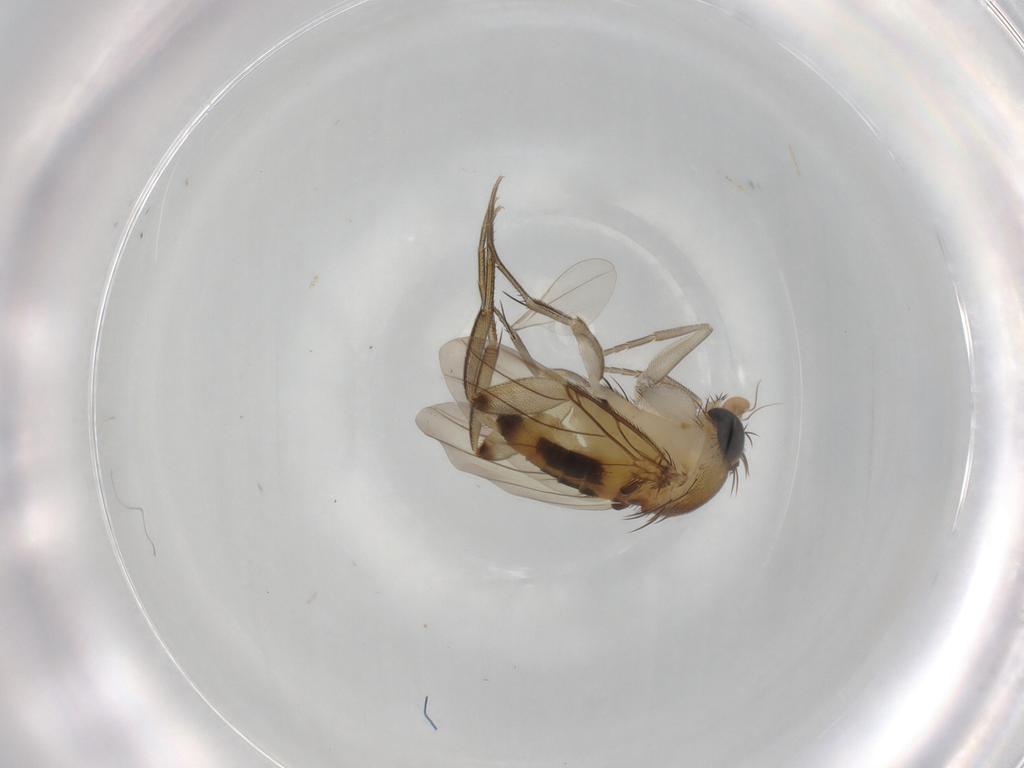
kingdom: Animalia
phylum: Arthropoda
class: Insecta
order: Diptera
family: Phoridae
